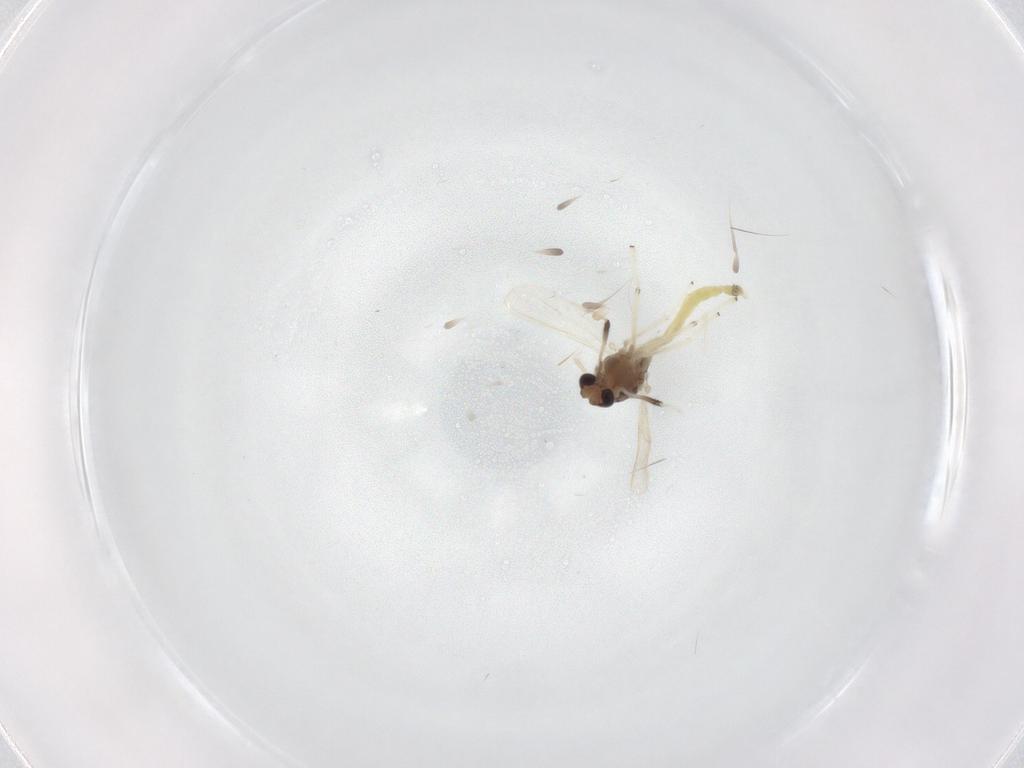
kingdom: Animalia
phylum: Arthropoda
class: Insecta
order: Diptera
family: Chironomidae
